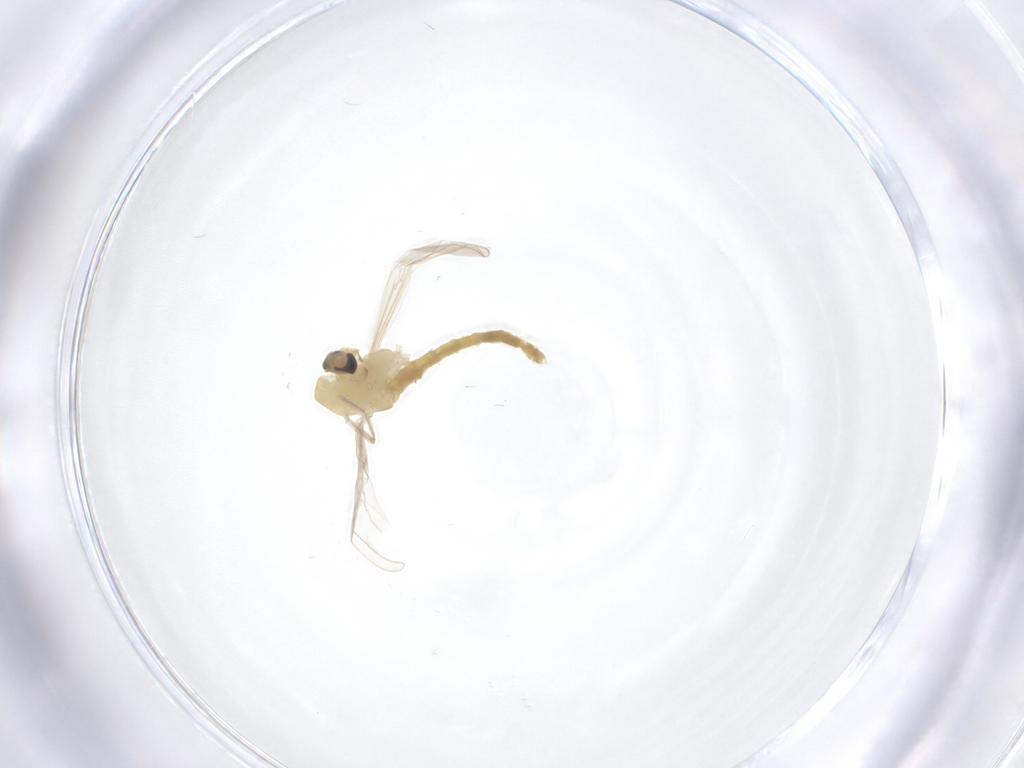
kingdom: Animalia
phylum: Arthropoda
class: Insecta
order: Diptera
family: Chironomidae
